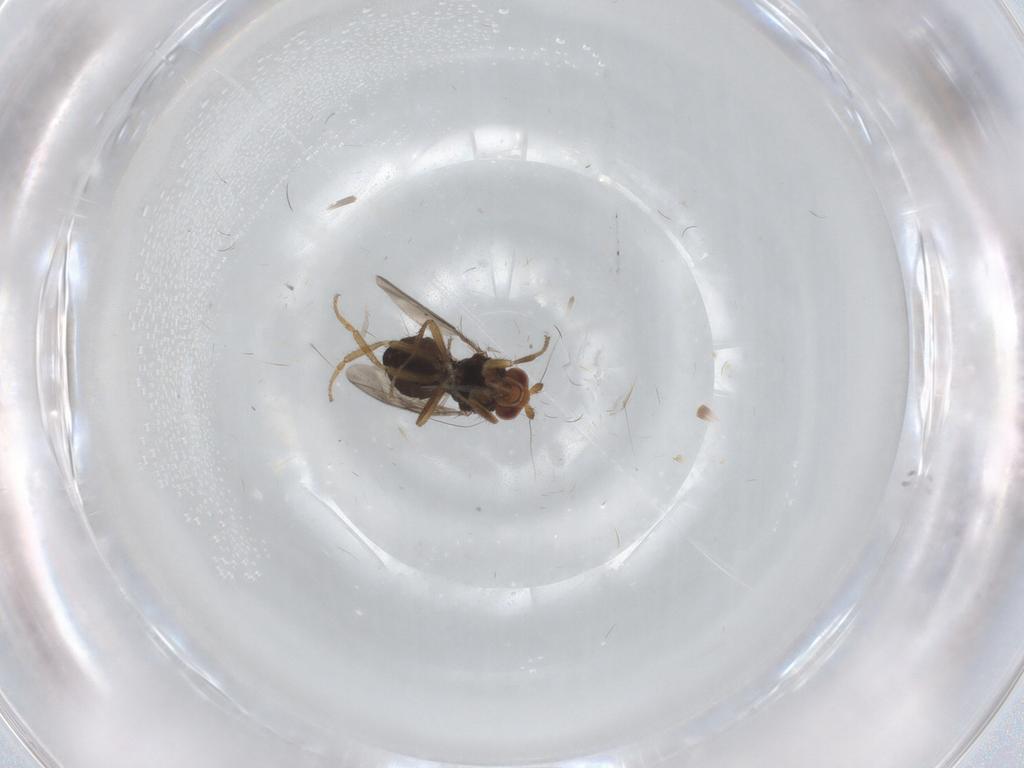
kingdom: Animalia
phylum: Arthropoda
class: Insecta
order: Diptera
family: Sphaeroceridae
